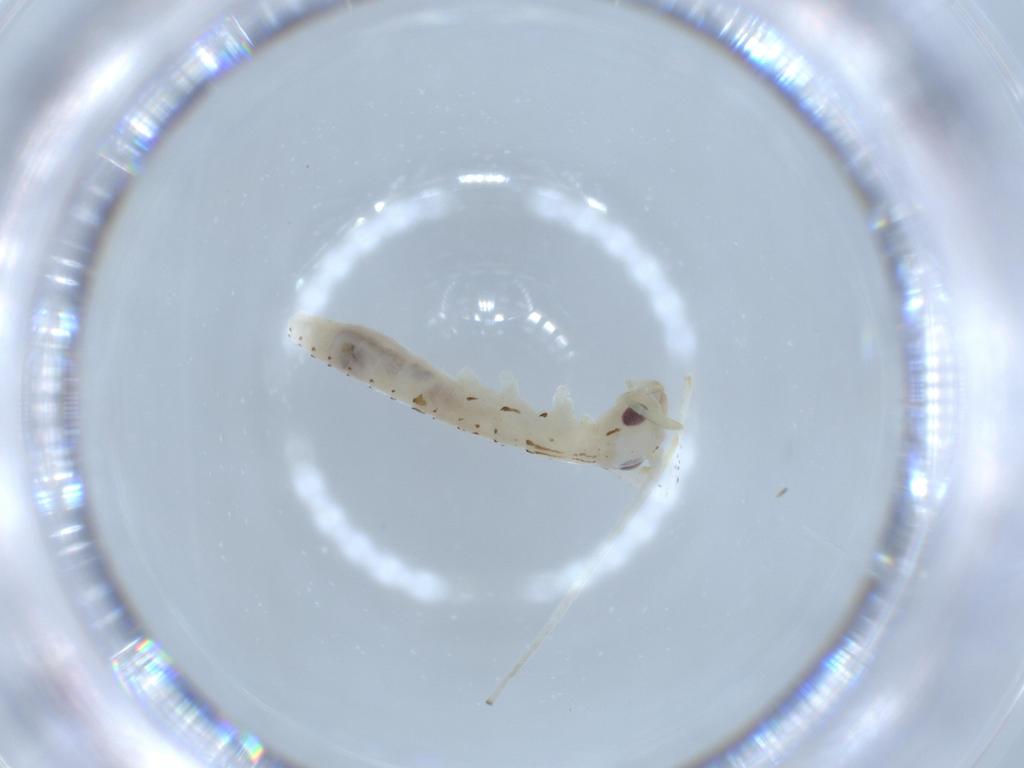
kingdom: Animalia
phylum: Arthropoda
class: Insecta
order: Orthoptera
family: Oecanthidae
